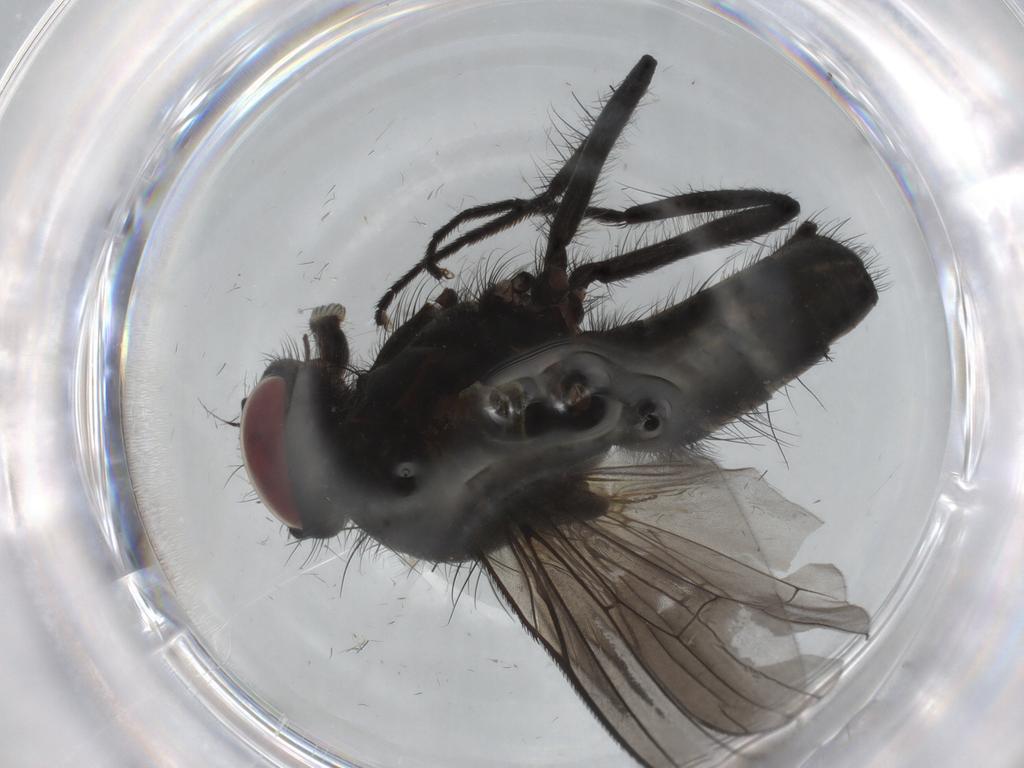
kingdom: Animalia
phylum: Arthropoda
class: Insecta
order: Diptera
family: Muscidae
